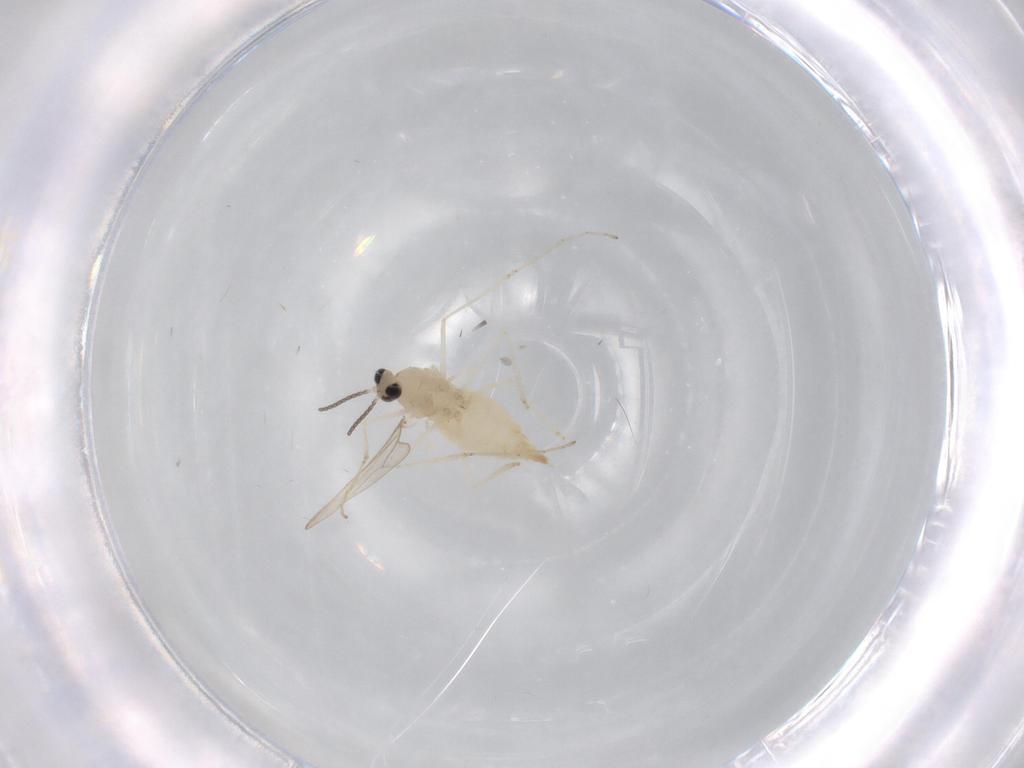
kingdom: Animalia
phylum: Arthropoda
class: Insecta
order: Diptera
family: Cecidomyiidae
